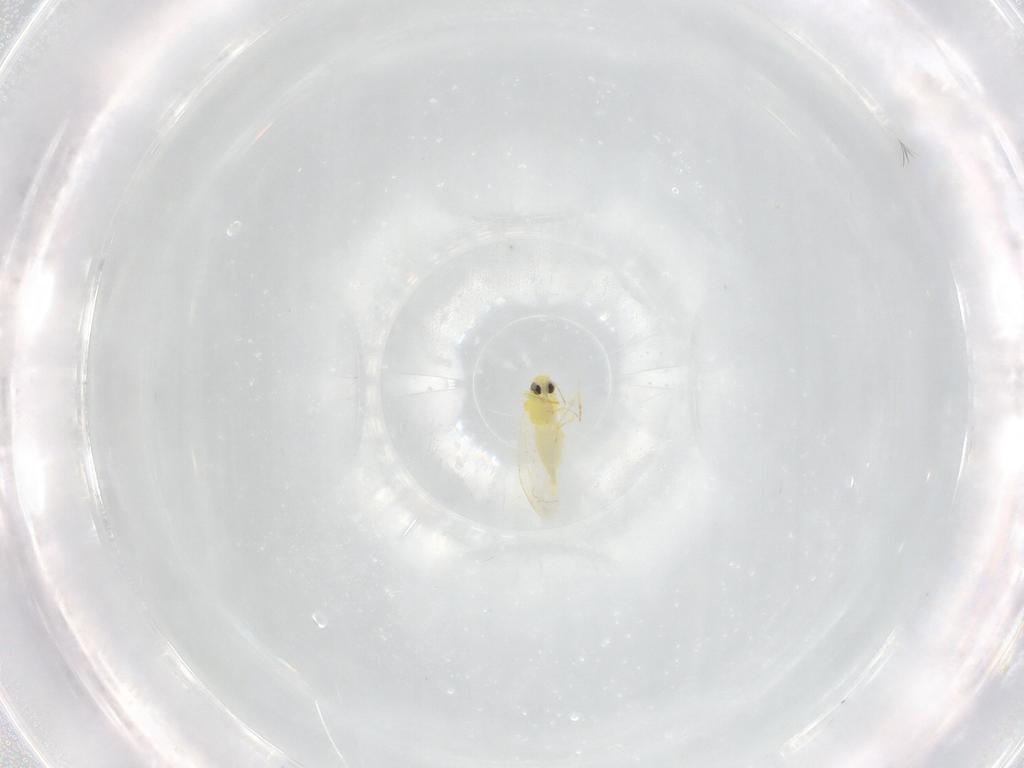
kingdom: Animalia
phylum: Arthropoda
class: Insecta
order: Hemiptera
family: Aleyrodidae
